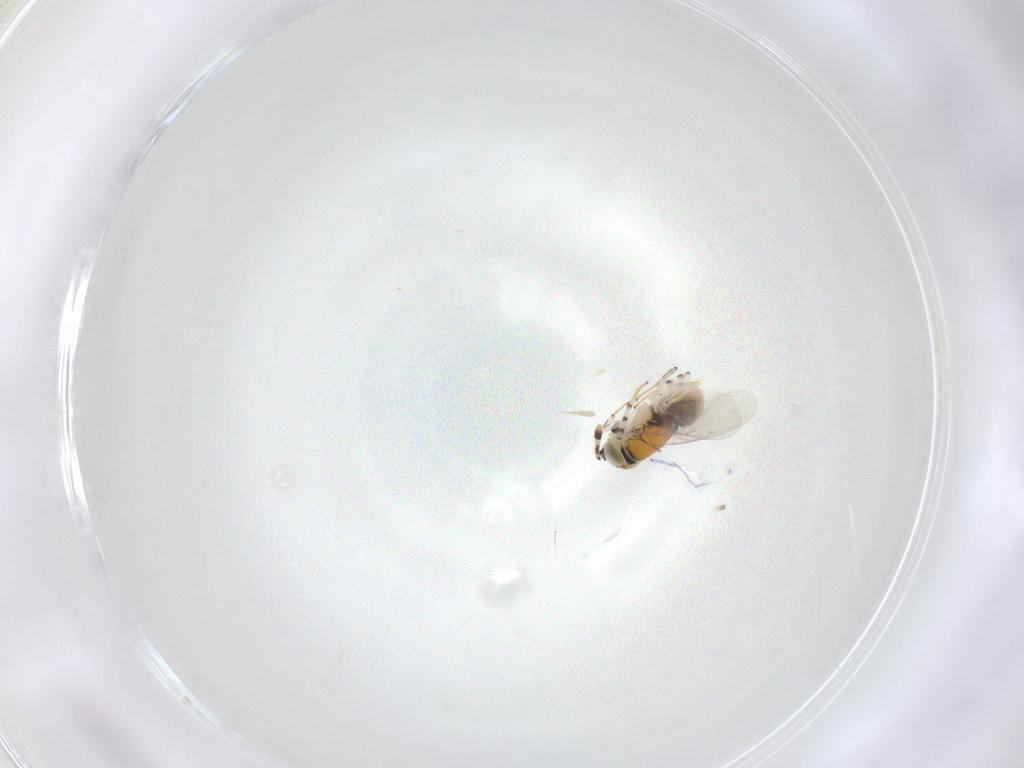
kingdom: Animalia
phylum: Arthropoda
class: Insecta
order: Hymenoptera
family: Encyrtidae
